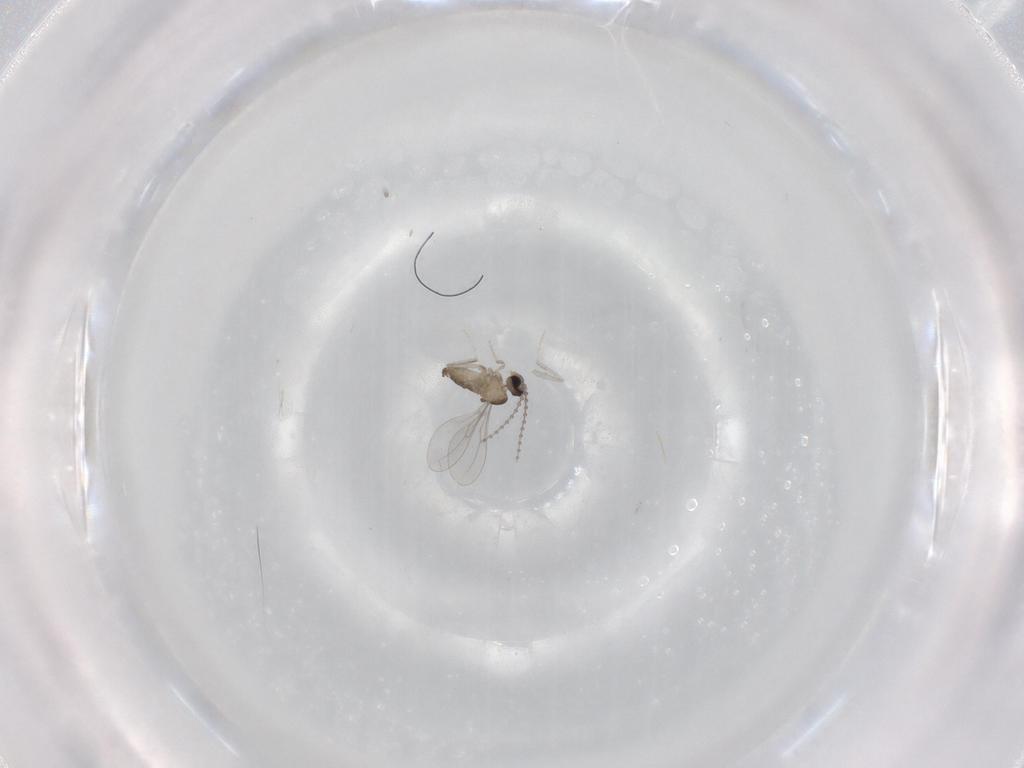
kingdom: Animalia
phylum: Arthropoda
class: Insecta
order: Diptera
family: Cecidomyiidae
